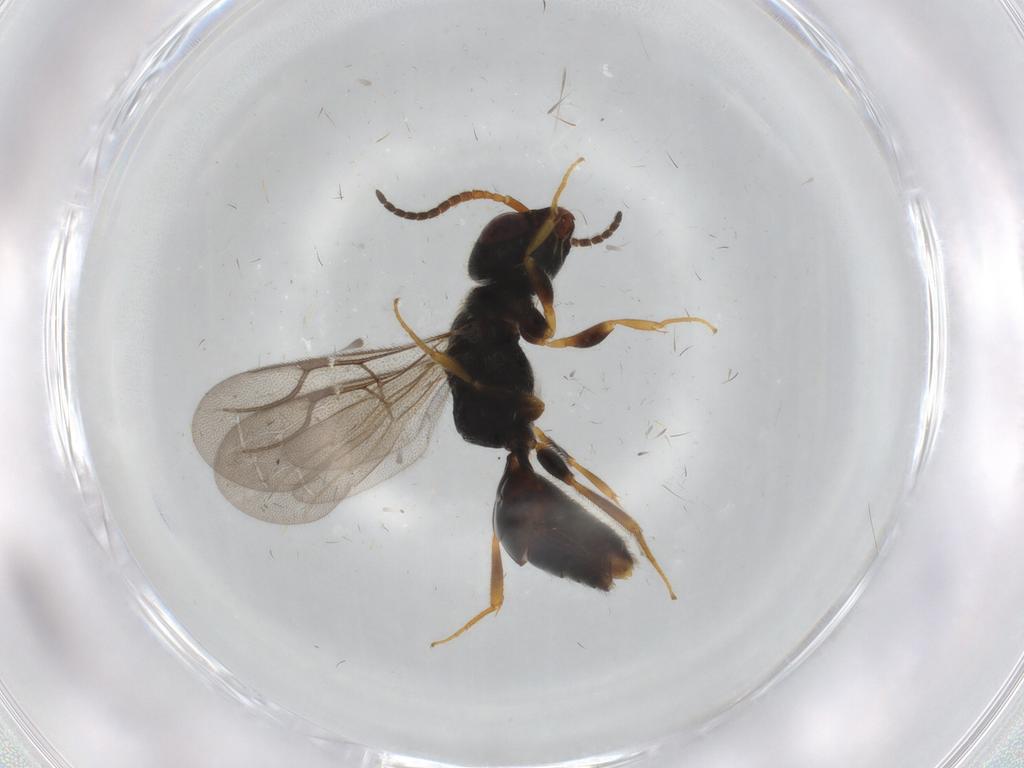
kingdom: Animalia
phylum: Arthropoda
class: Insecta
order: Hymenoptera
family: Bethylidae
